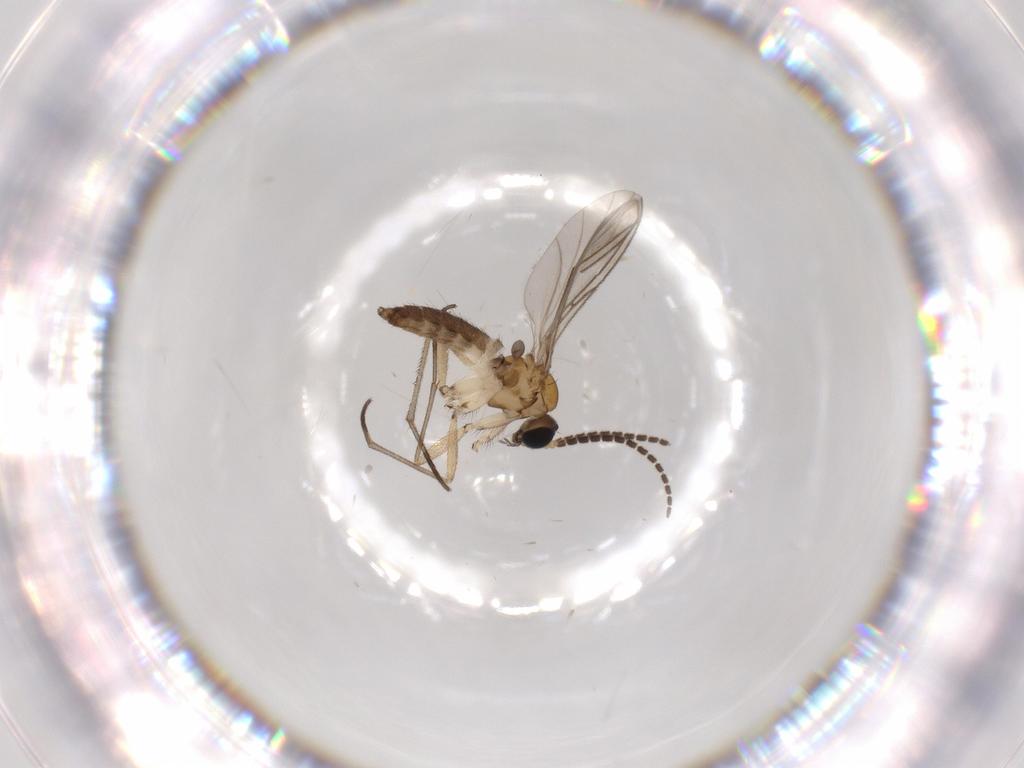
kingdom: Animalia
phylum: Arthropoda
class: Insecta
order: Diptera
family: Sciaridae
